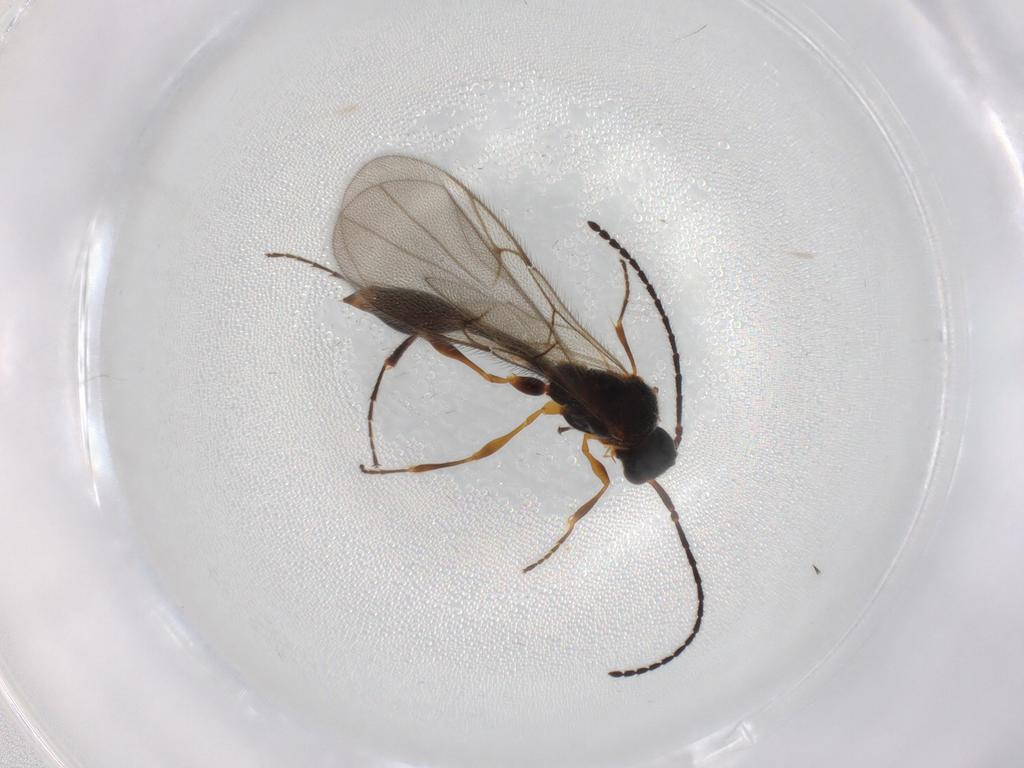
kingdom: Animalia
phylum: Arthropoda
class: Insecta
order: Hymenoptera
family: Diapriidae
